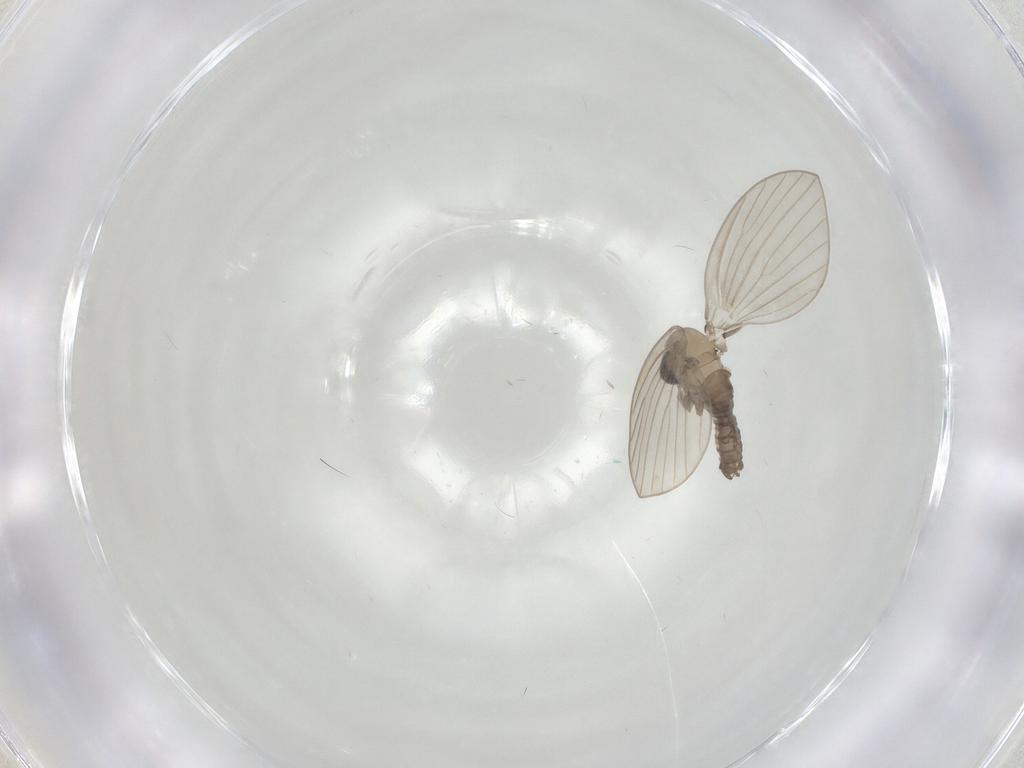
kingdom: Animalia
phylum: Arthropoda
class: Insecta
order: Diptera
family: Psychodidae
